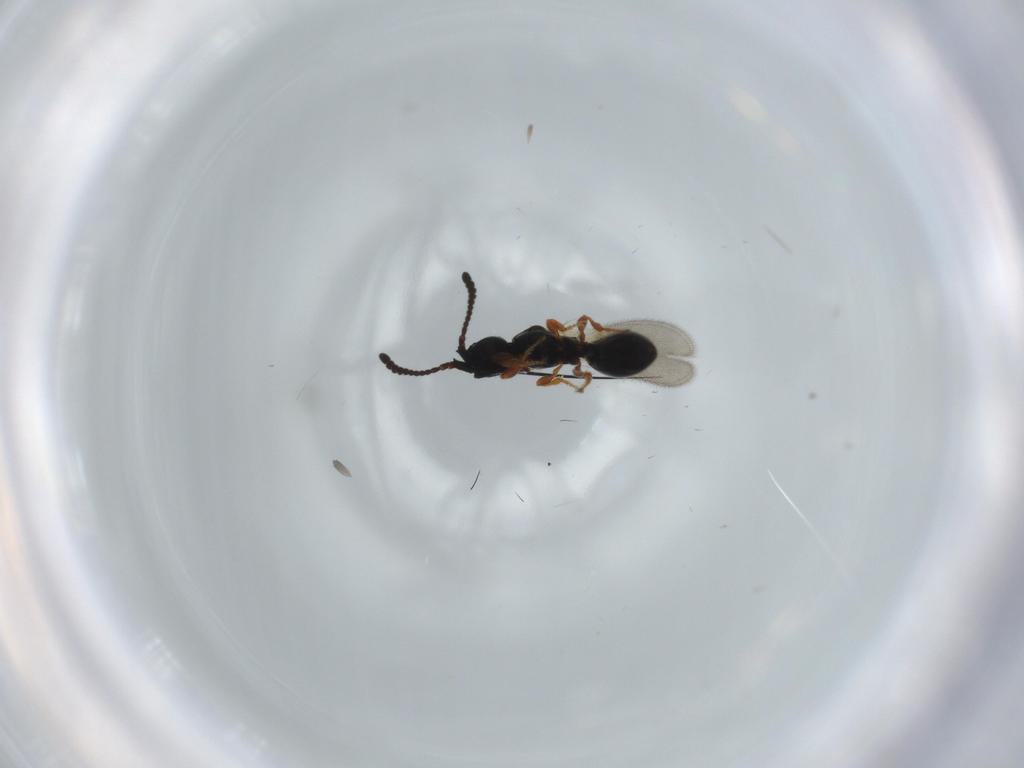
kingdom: Animalia
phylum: Arthropoda
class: Insecta
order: Hymenoptera
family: Diapriidae
